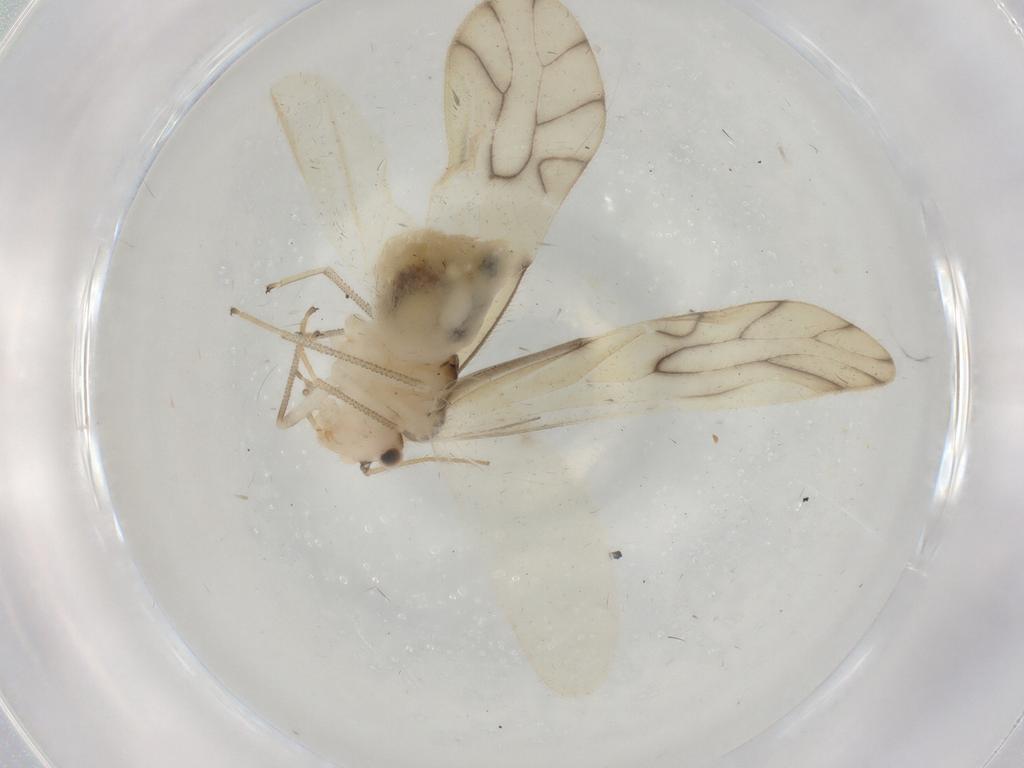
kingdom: Animalia
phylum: Arthropoda
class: Insecta
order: Psocodea
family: Caeciliusidae
